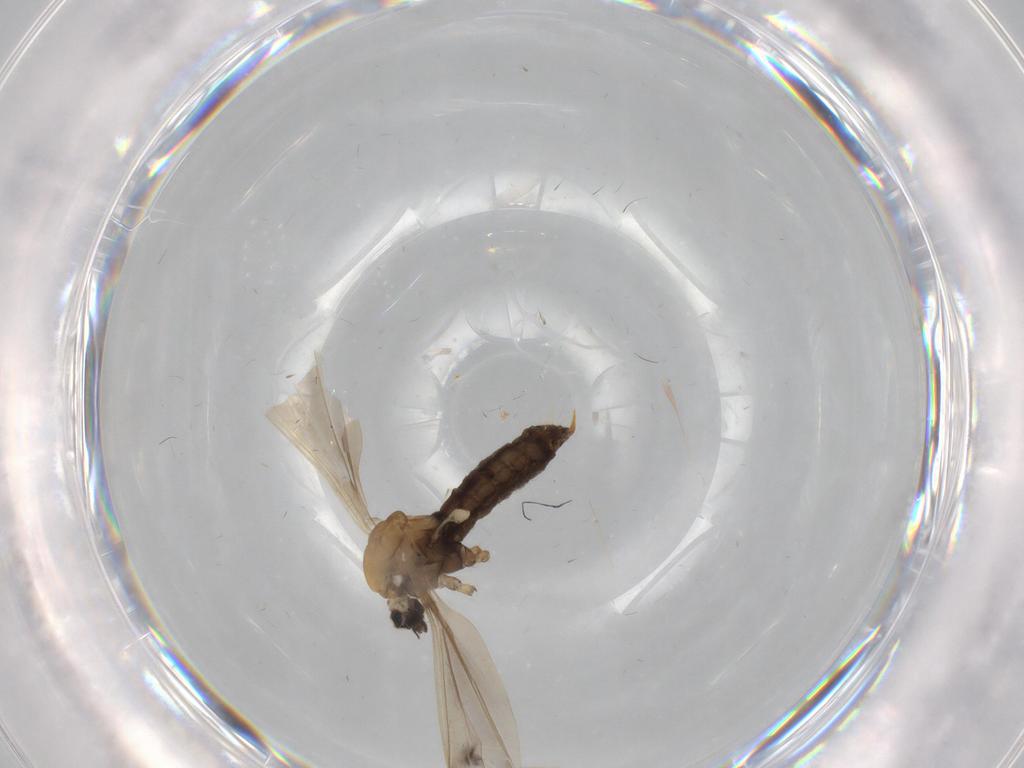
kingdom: Animalia
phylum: Arthropoda
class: Insecta
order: Diptera
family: Limoniidae
